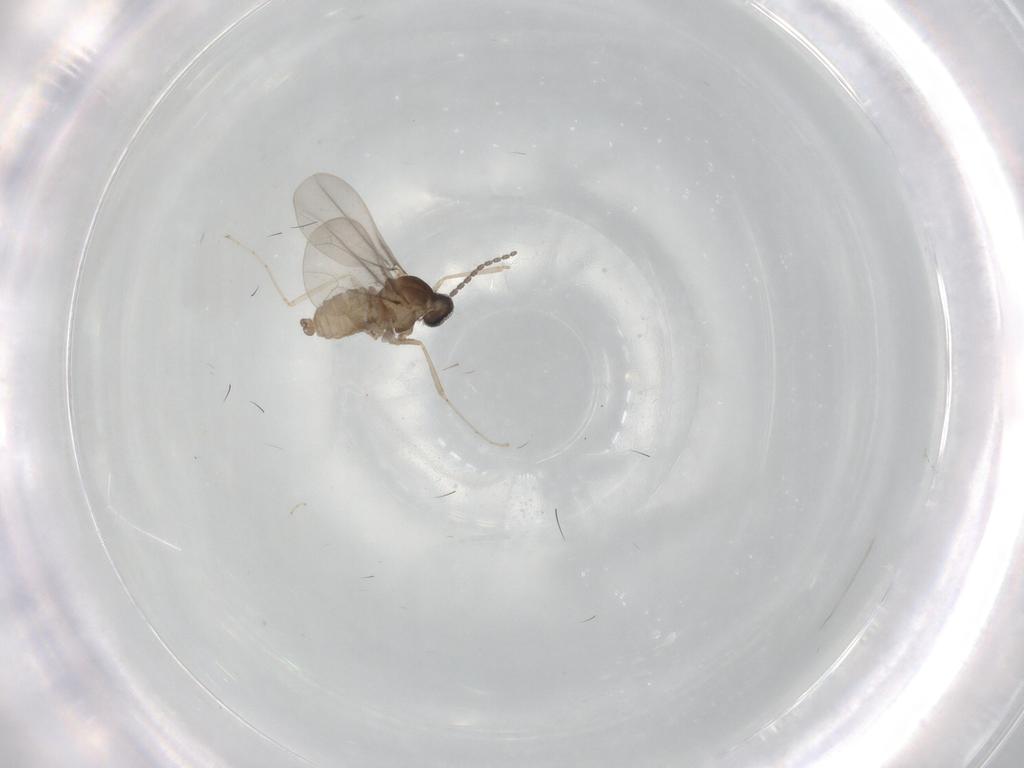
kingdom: Animalia
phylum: Arthropoda
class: Insecta
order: Diptera
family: Cecidomyiidae
